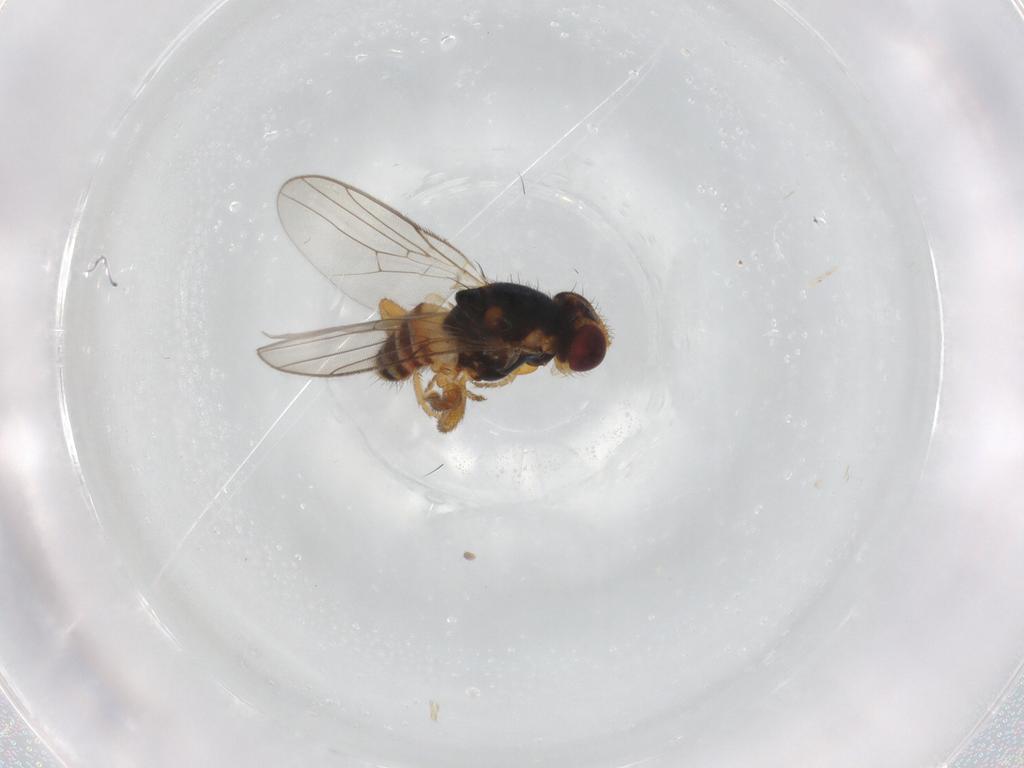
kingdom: Animalia
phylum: Arthropoda
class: Insecta
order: Diptera
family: Chloropidae
